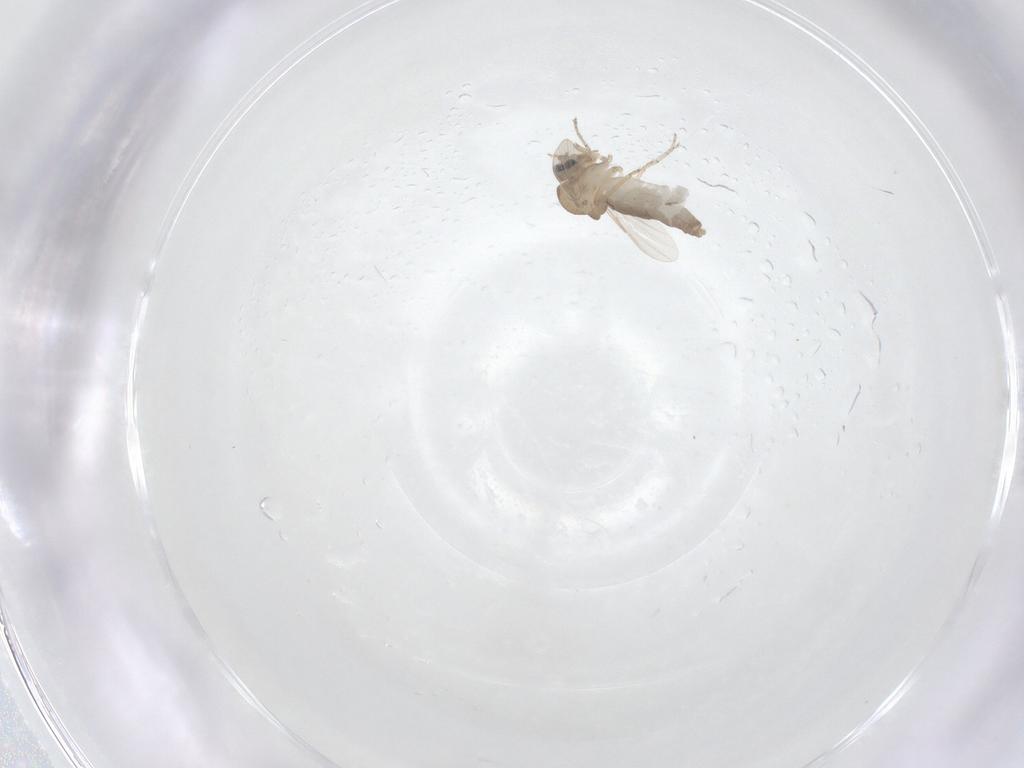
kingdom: Animalia
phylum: Arthropoda
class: Insecta
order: Diptera
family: Ceratopogonidae
